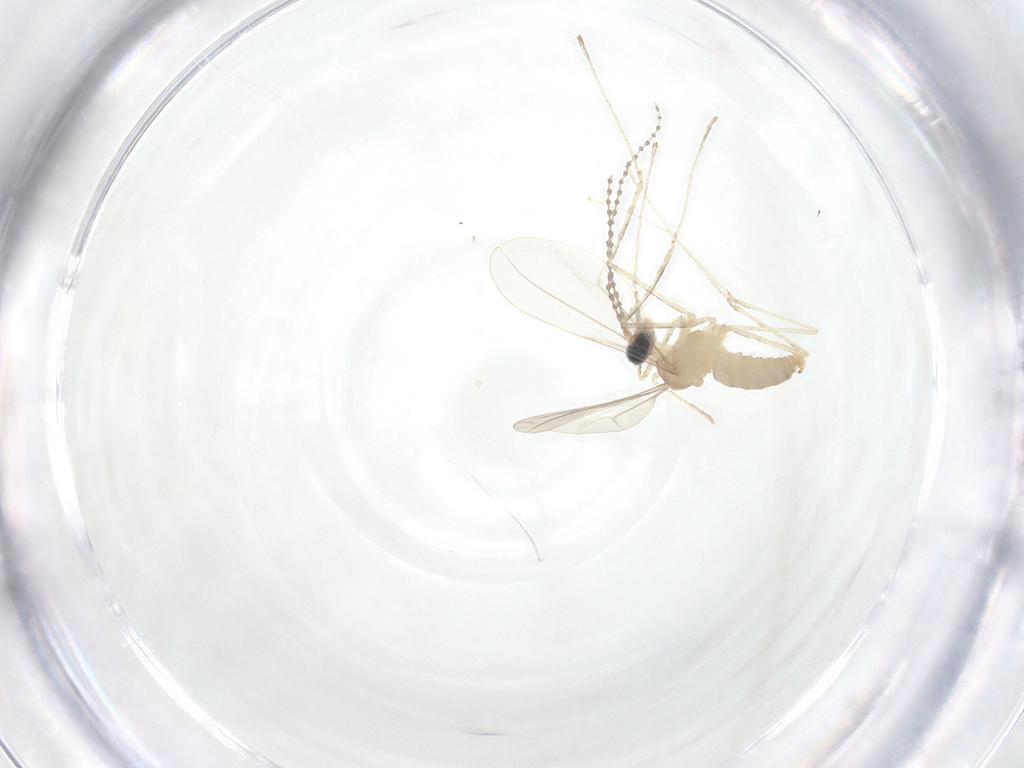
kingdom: Animalia
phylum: Arthropoda
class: Insecta
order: Diptera
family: Cecidomyiidae
